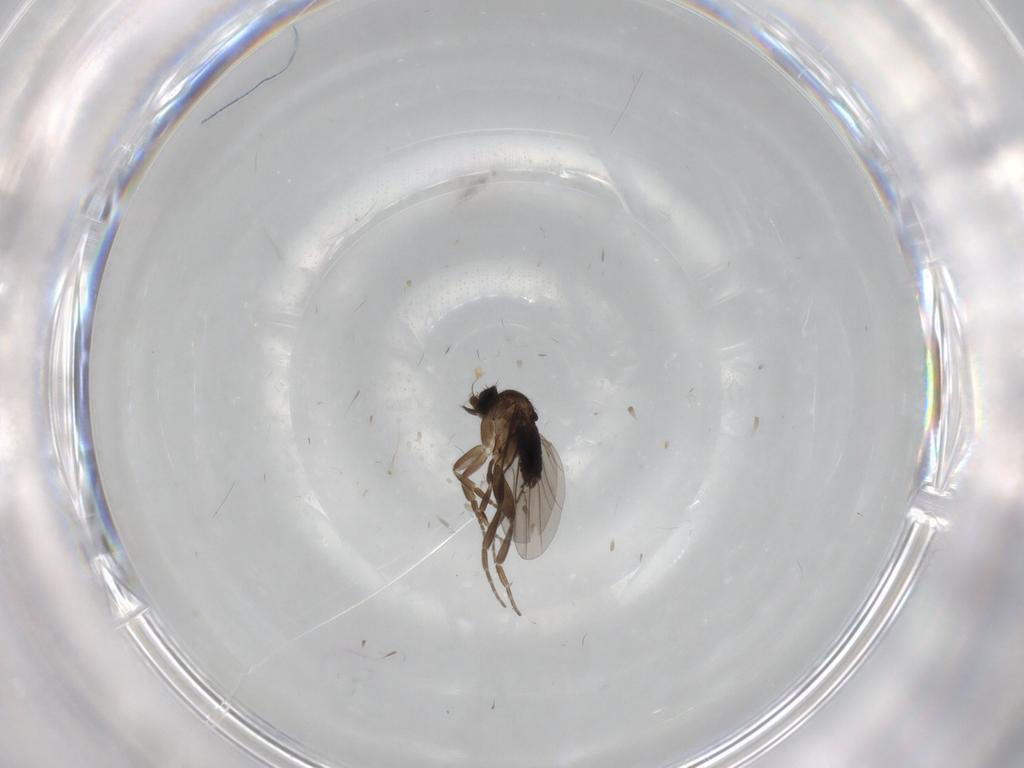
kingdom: Animalia
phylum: Arthropoda
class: Insecta
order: Diptera
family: Phoridae
